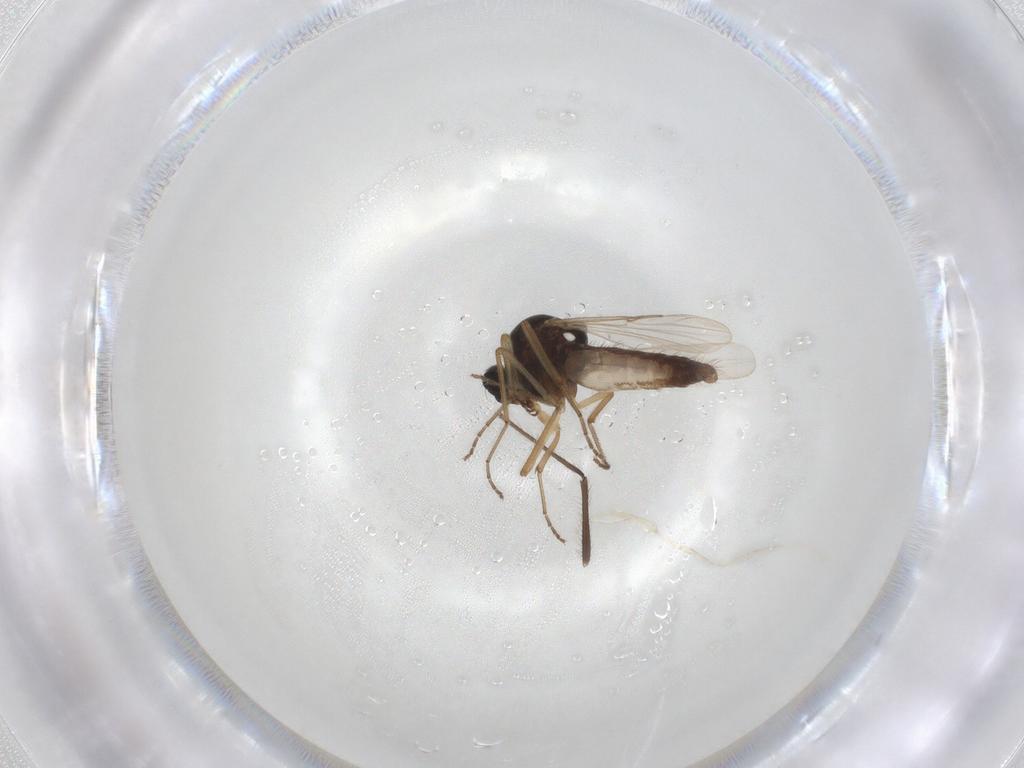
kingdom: Animalia
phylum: Arthropoda
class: Insecta
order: Diptera
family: Ceratopogonidae
